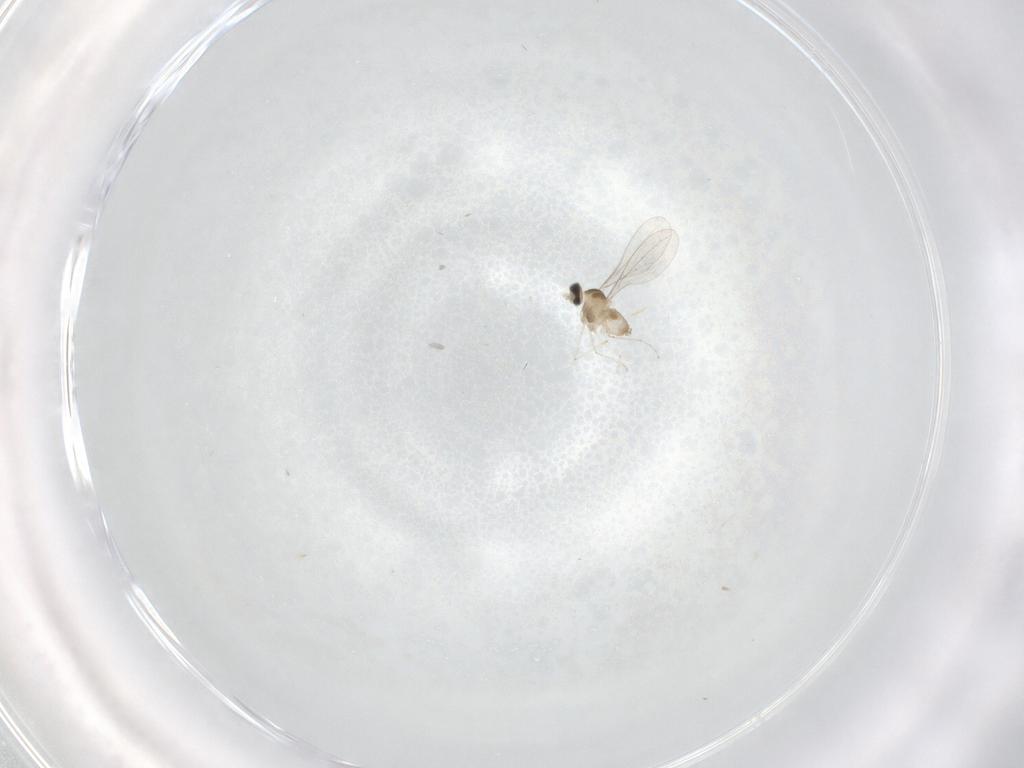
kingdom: Animalia
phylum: Arthropoda
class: Insecta
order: Diptera
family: Cecidomyiidae
